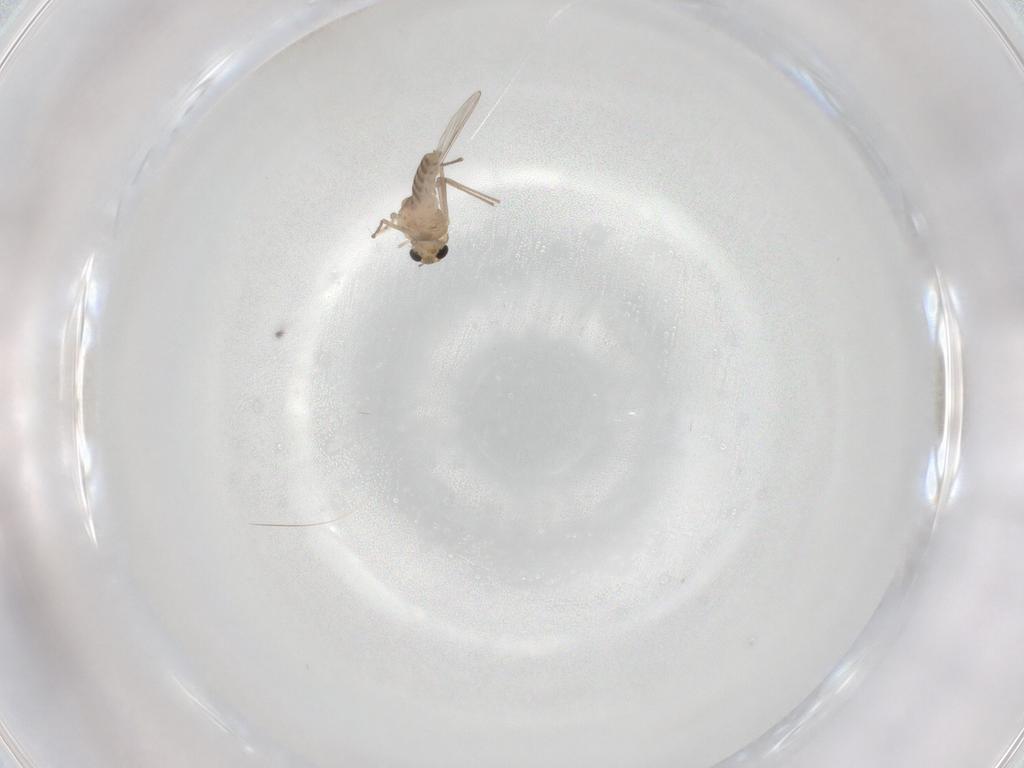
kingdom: Animalia
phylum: Arthropoda
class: Insecta
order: Diptera
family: Chironomidae
